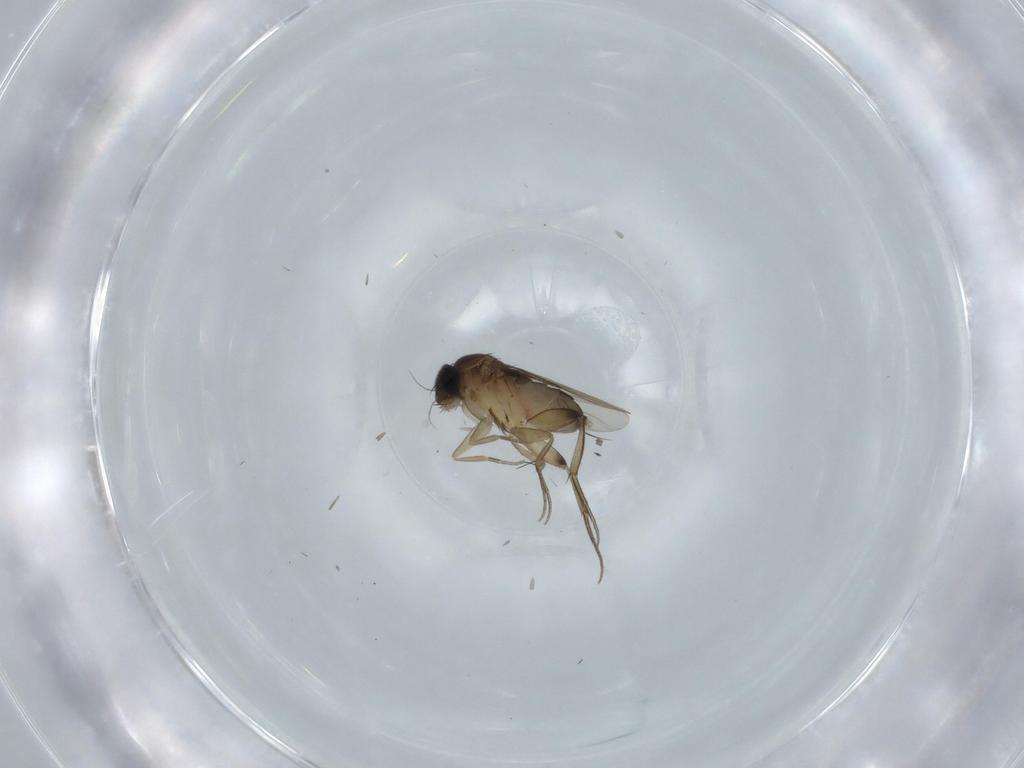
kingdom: Animalia
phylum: Arthropoda
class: Insecta
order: Diptera
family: Phoridae
